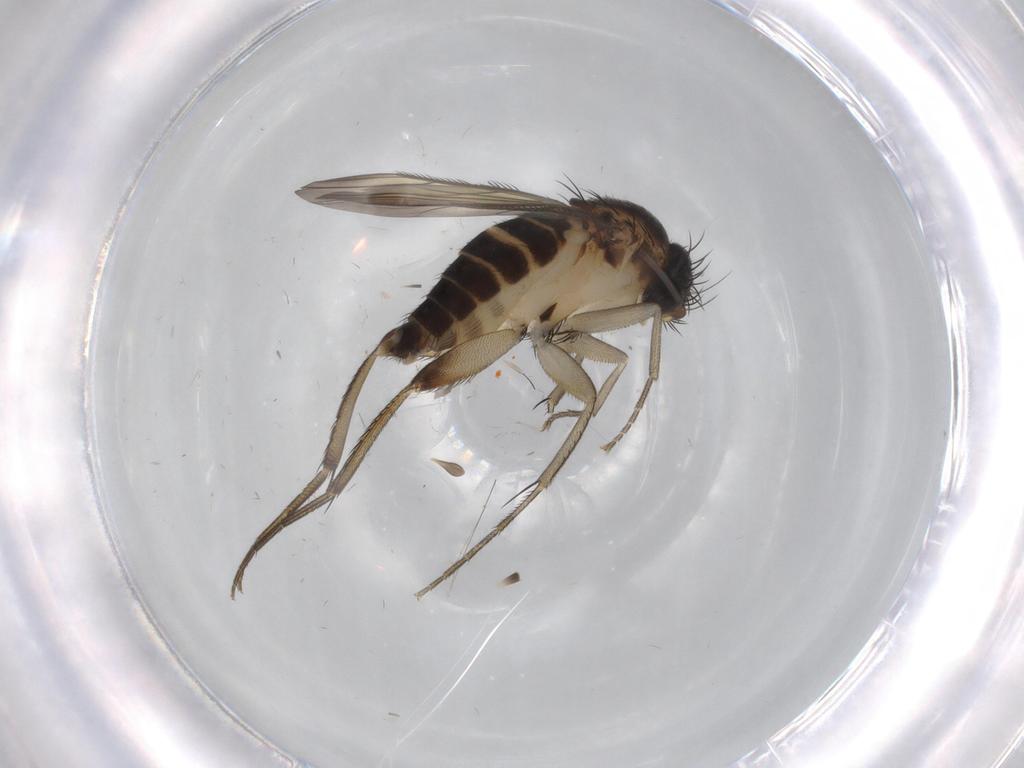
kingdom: Animalia
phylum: Arthropoda
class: Insecta
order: Diptera
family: Phoridae
